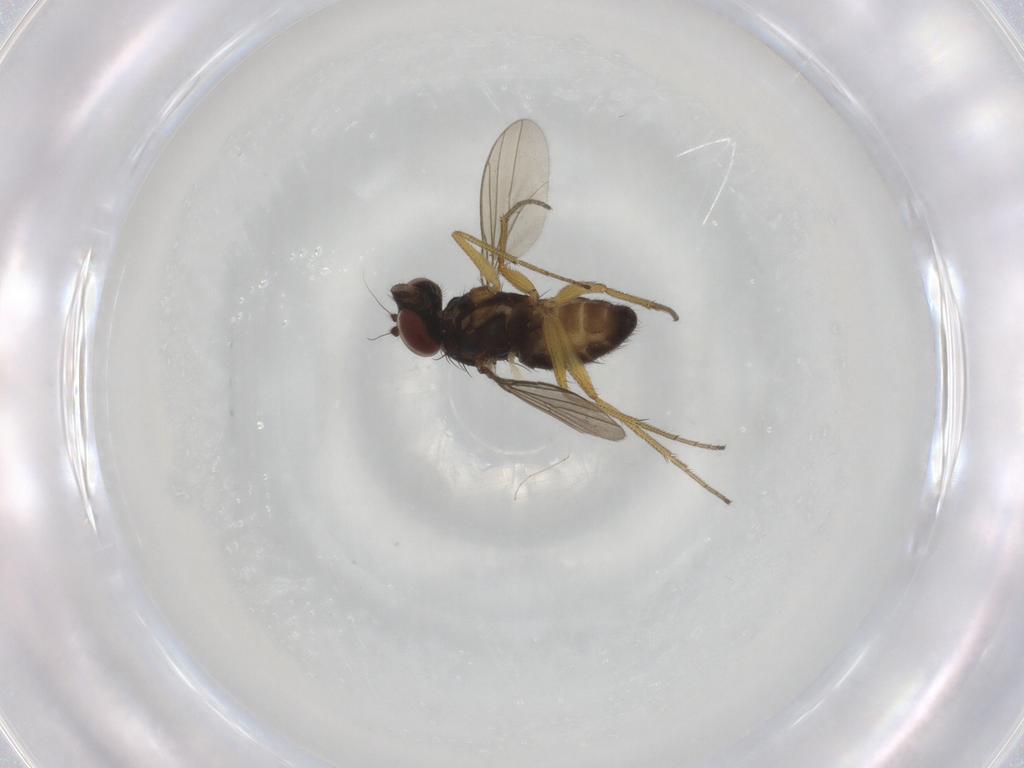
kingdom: Animalia
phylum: Arthropoda
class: Insecta
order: Diptera
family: Dolichopodidae
